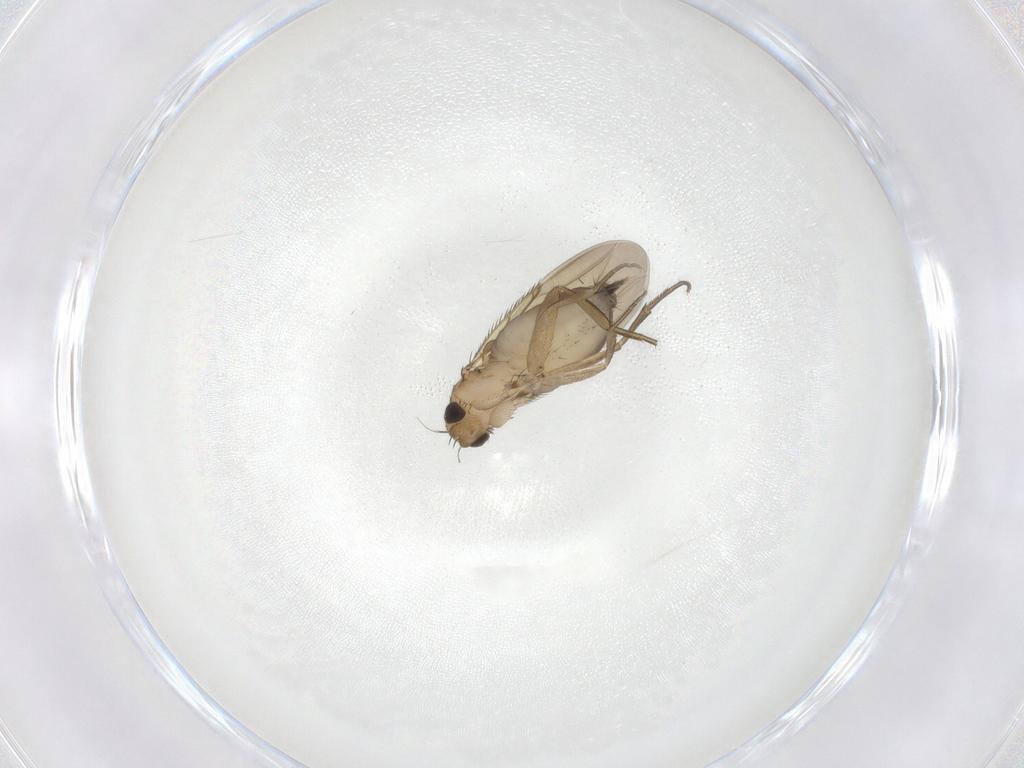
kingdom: Animalia
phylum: Arthropoda
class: Insecta
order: Diptera
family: Phoridae
